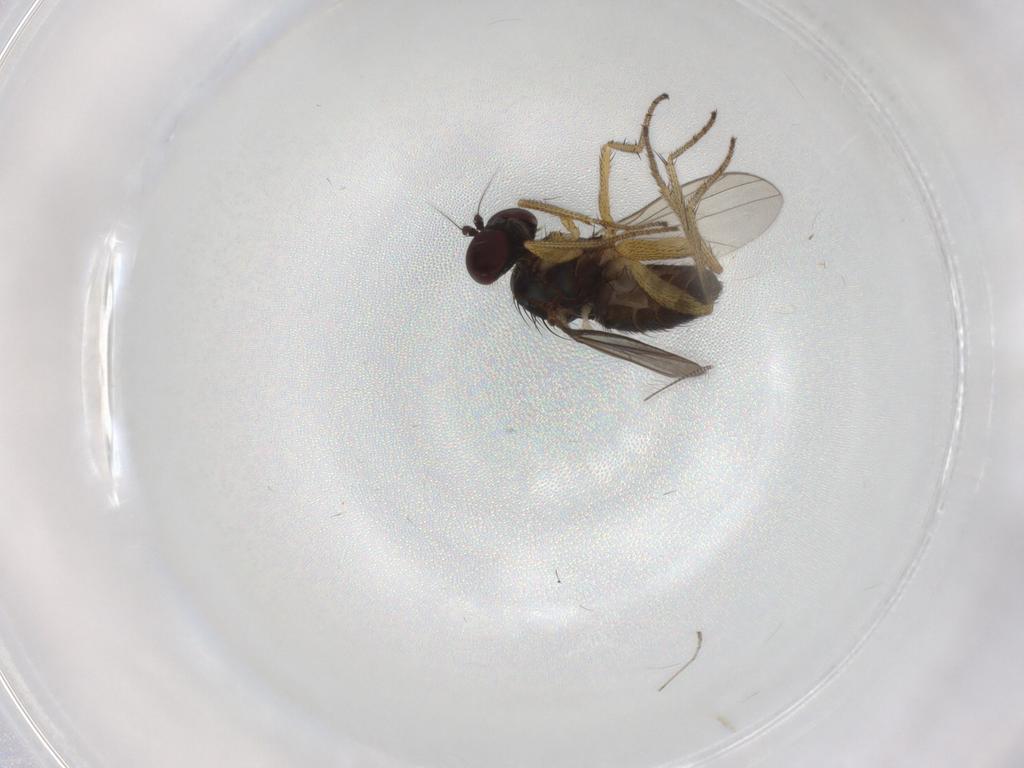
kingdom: Animalia
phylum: Arthropoda
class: Insecta
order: Diptera
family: Chironomidae
